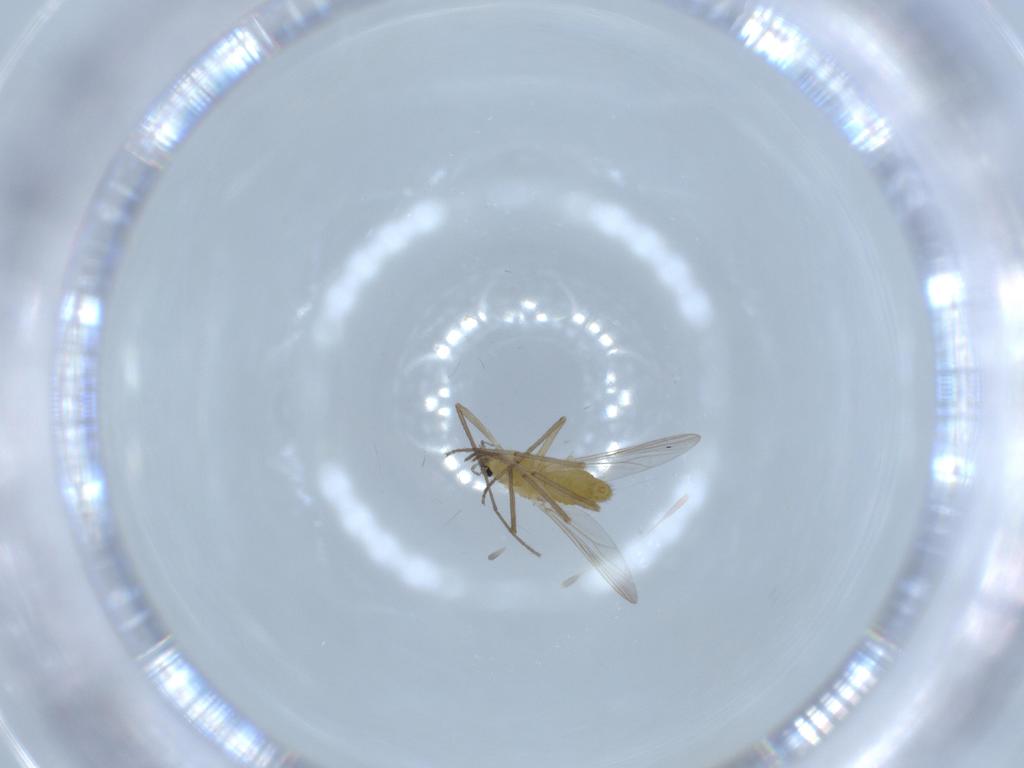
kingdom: Animalia
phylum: Arthropoda
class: Insecta
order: Diptera
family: Chironomidae
